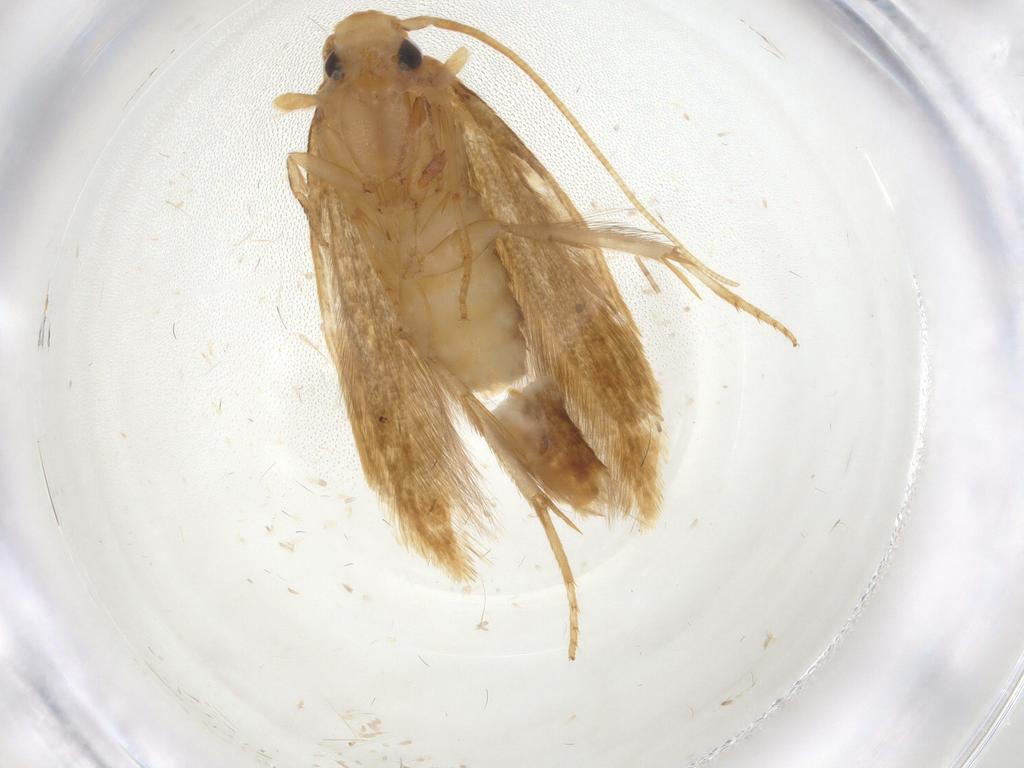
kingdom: Animalia
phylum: Arthropoda
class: Insecta
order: Lepidoptera
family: Tineidae
